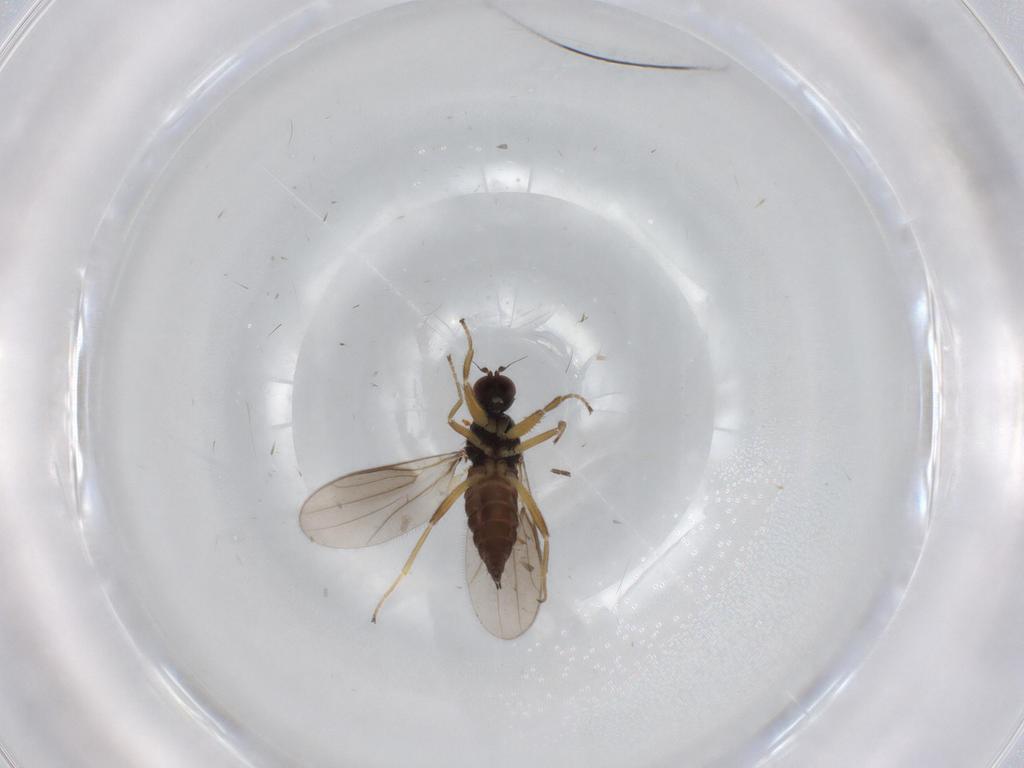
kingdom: Animalia
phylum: Arthropoda
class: Insecta
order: Diptera
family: Hybotidae
